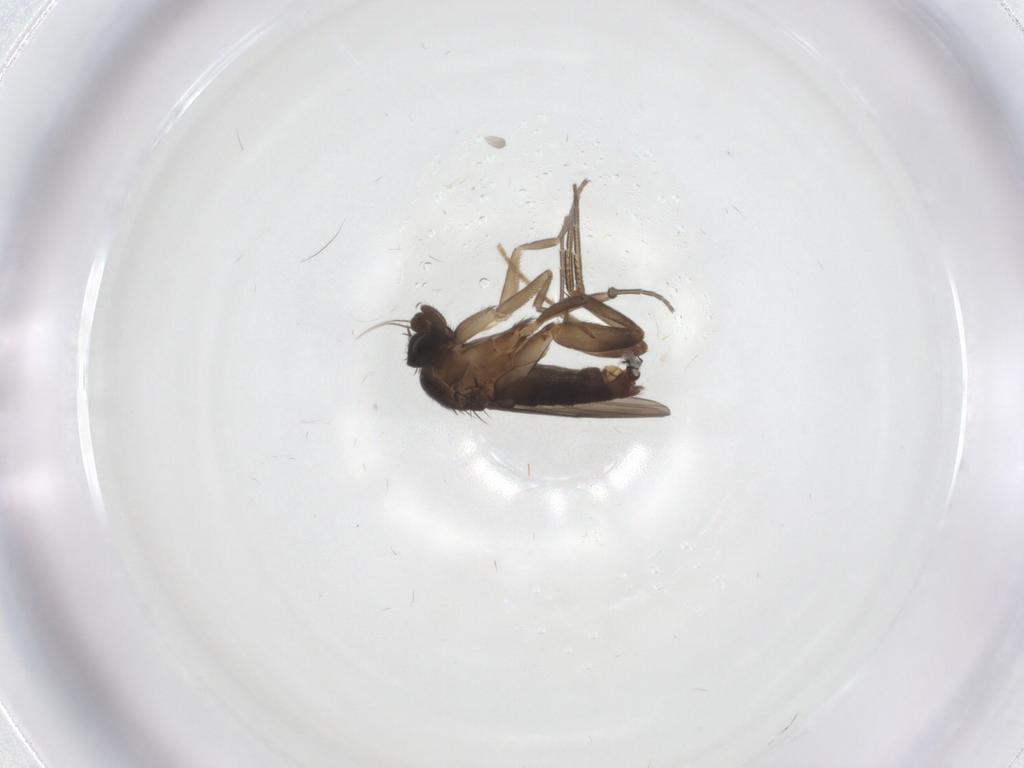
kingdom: Animalia
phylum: Arthropoda
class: Insecta
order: Diptera
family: Phoridae
